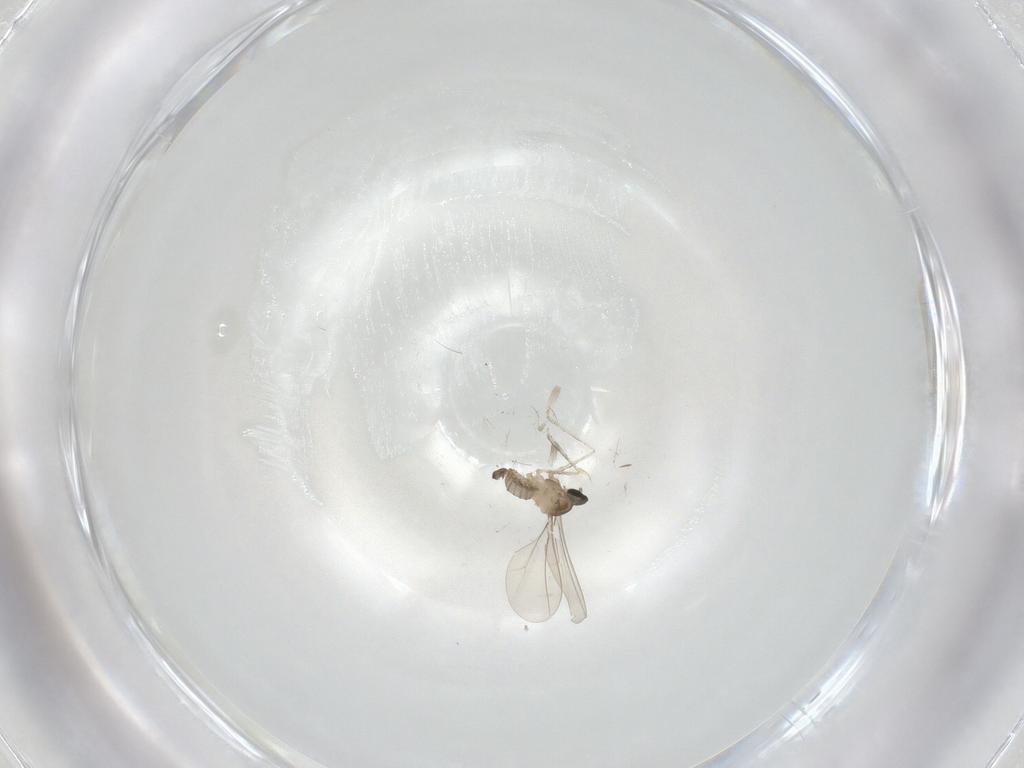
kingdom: Animalia
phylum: Arthropoda
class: Insecta
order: Diptera
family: Cecidomyiidae
